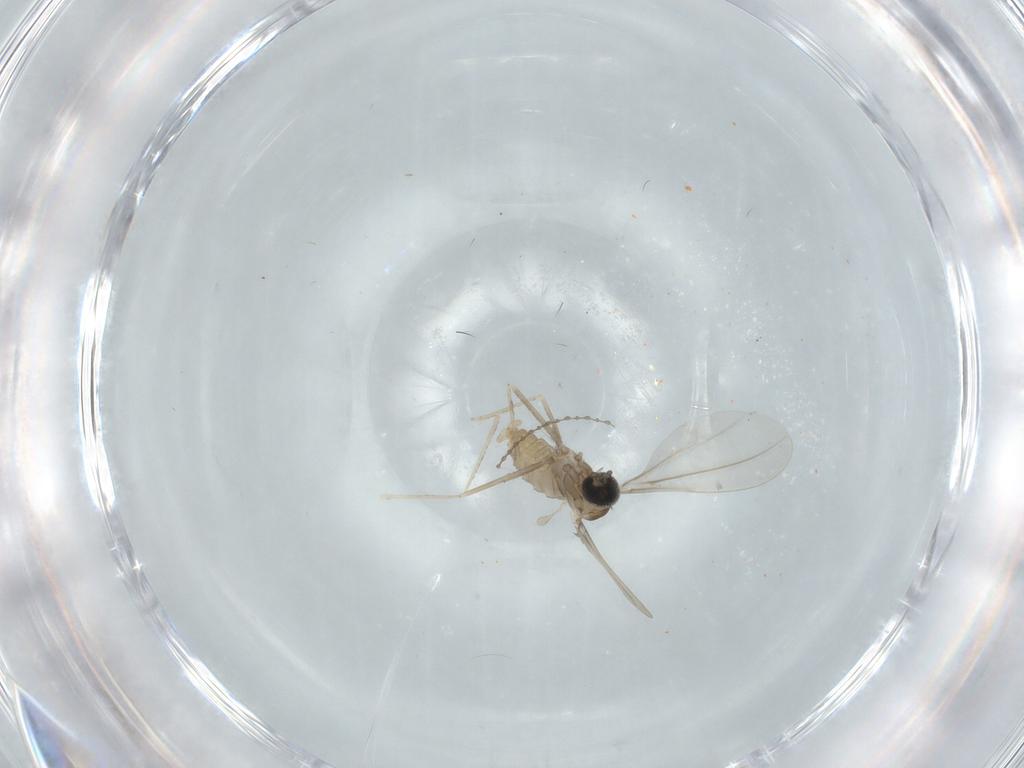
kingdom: Animalia
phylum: Arthropoda
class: Insecta
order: Diptera
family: Cecidomyiidae
